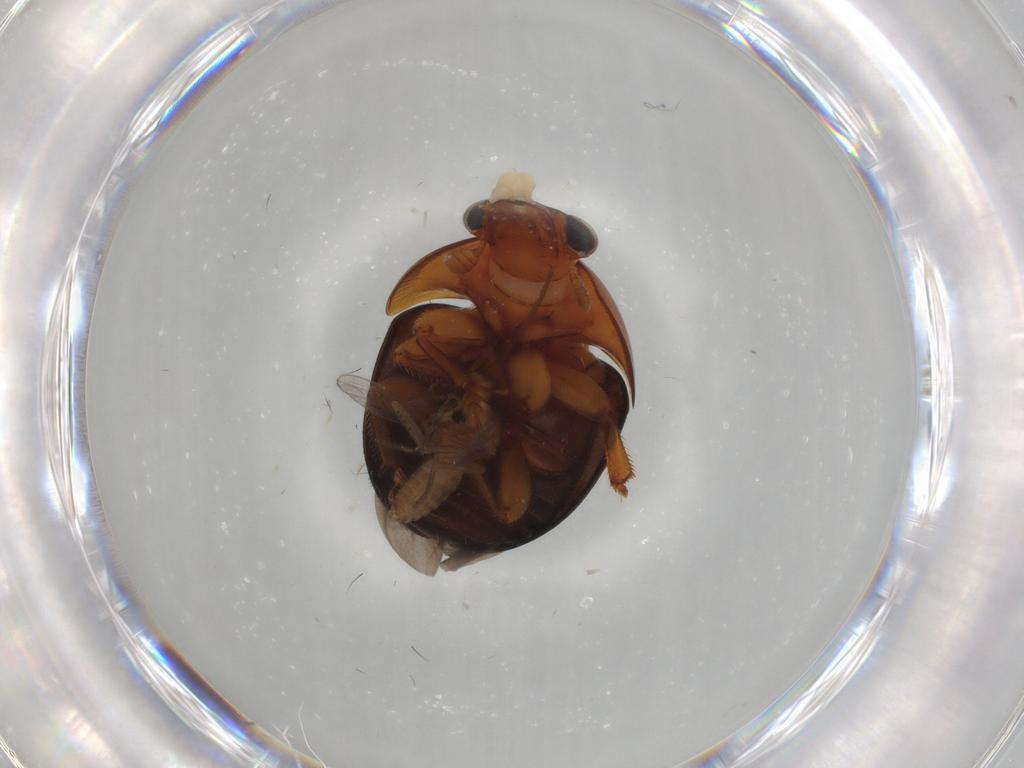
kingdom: Animalia
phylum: Arthropoda
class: Insecta
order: Coleoptera
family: Nitidulidae
